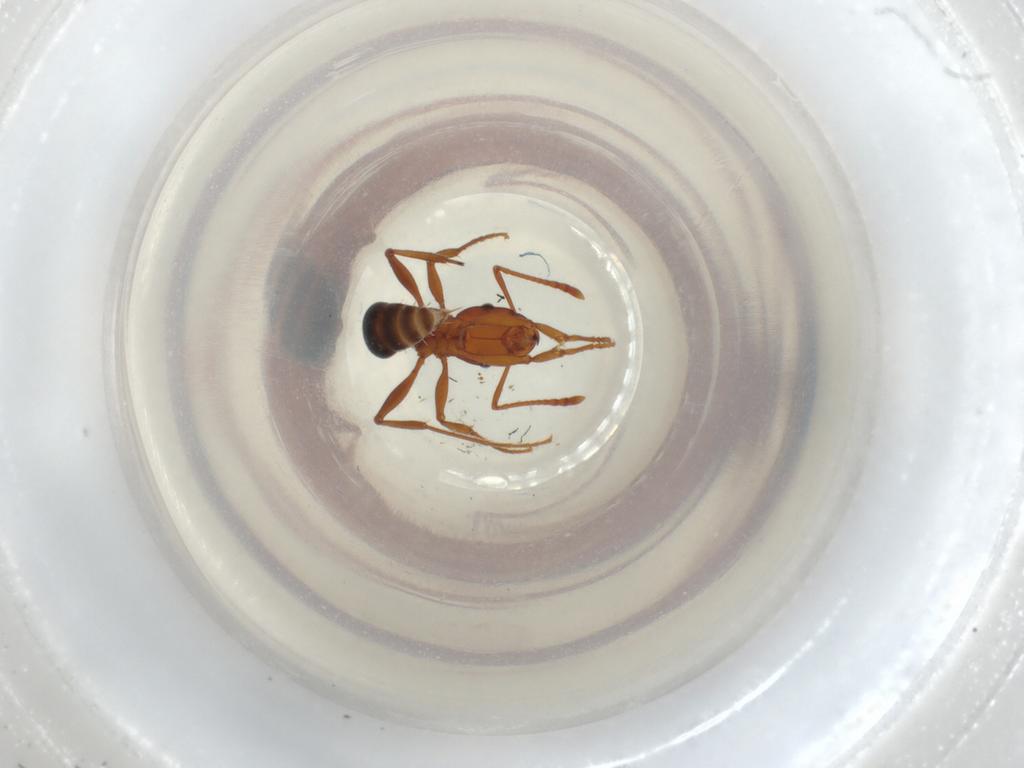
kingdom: Animalia
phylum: Arthropoda
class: Insecta
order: Hymenoptera
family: Formicidae
